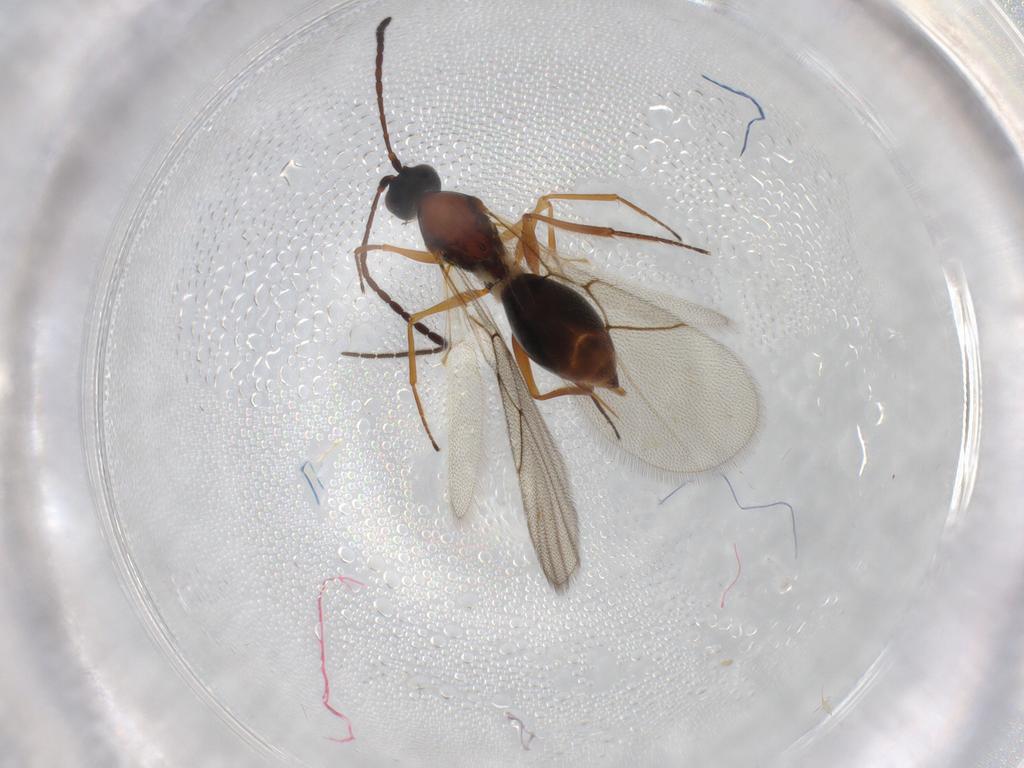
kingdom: Animalia
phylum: Arthropoda
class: Insecta
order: Hymenoptera
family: Figitidae
